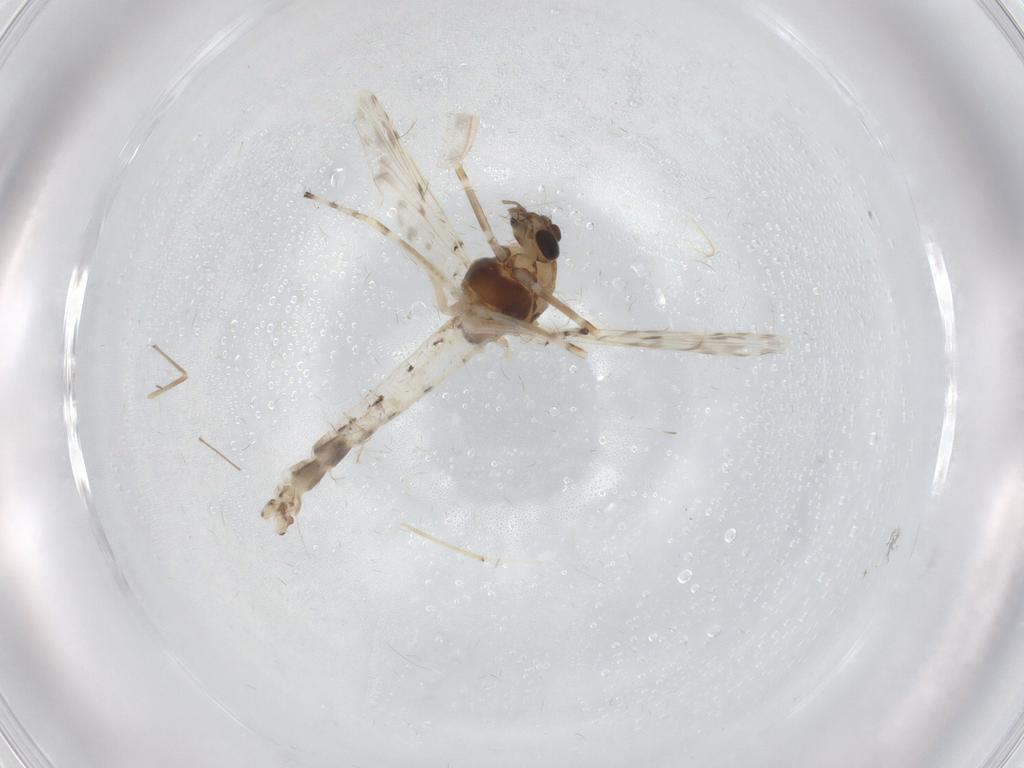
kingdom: Animalia
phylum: Arthropoda
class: Insecta
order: Diptera
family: Chironomidae
